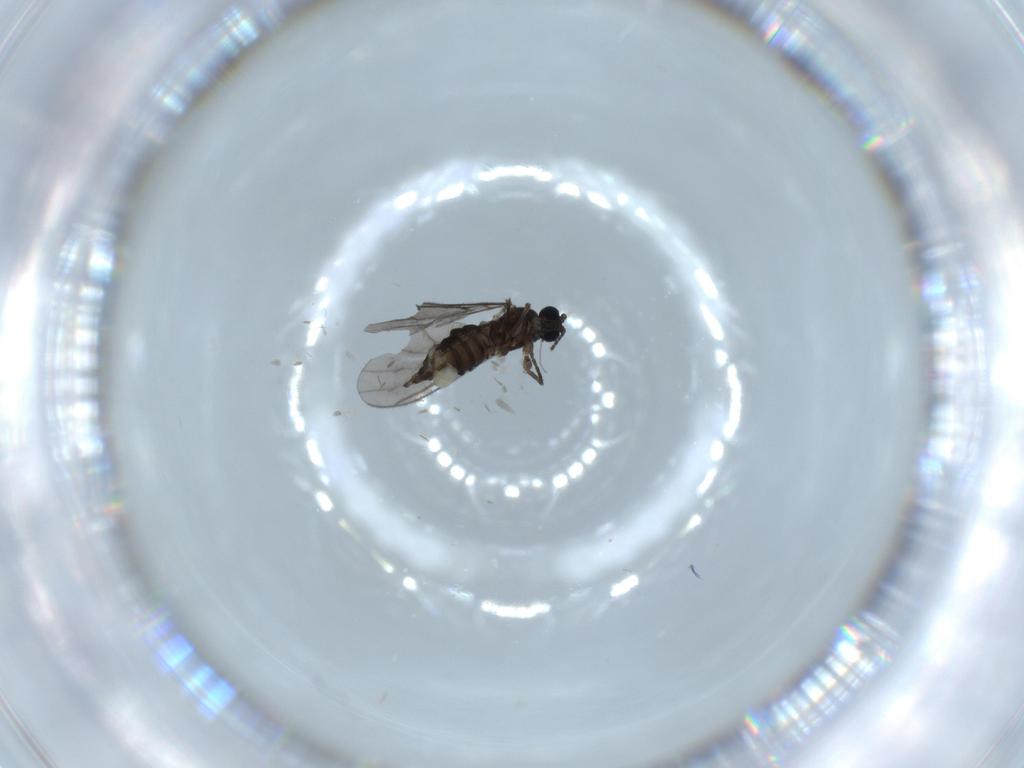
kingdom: Animalia
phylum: Arthropoda
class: Insecta
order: Diptera
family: Sciaridae
